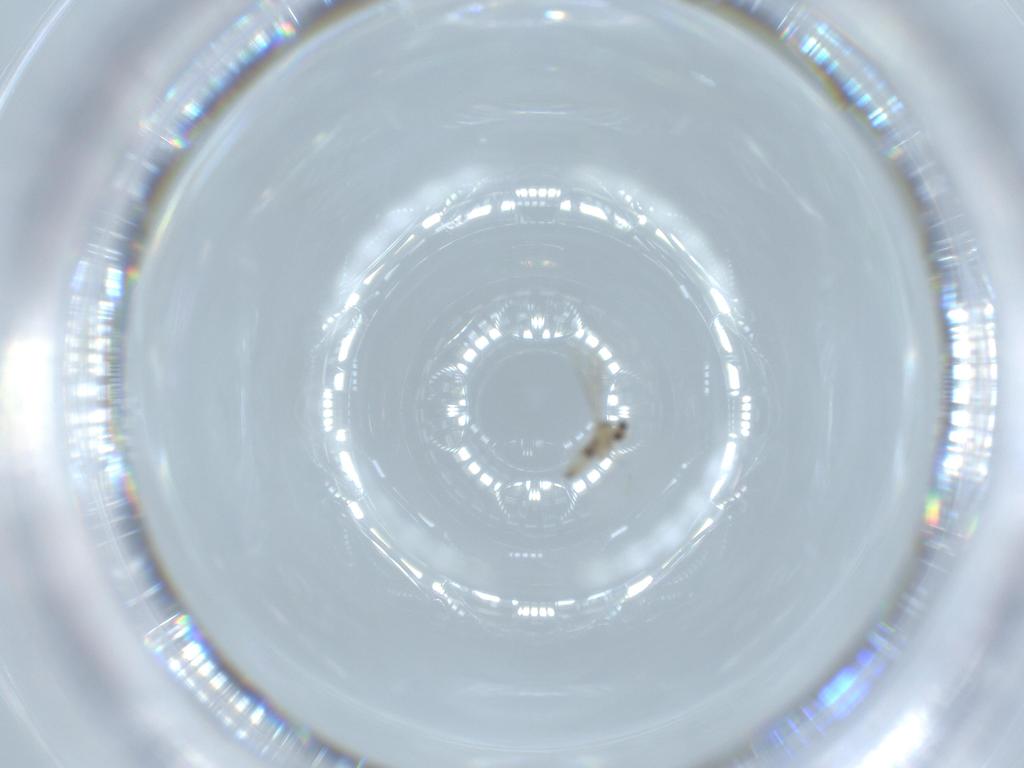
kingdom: Animalia
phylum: Arthropoda
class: Insecta
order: Diptera
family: Cecidomyiidae
